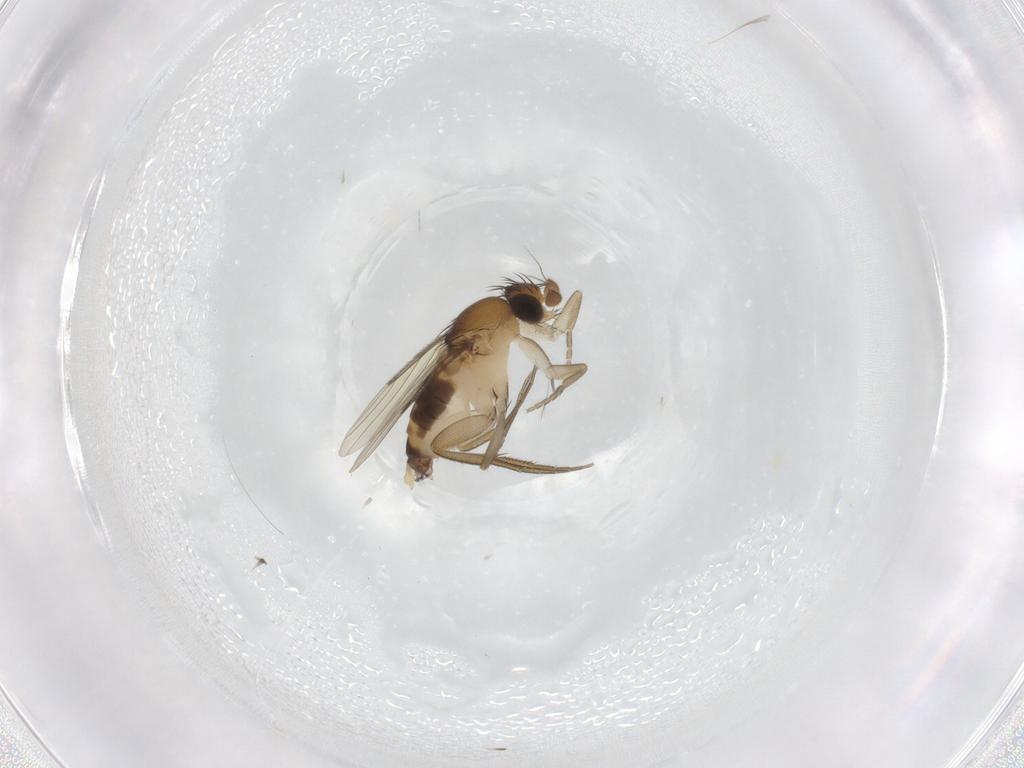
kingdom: Animalia
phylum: Arthropoda
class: Insecta
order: Diptera
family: Phoridae
